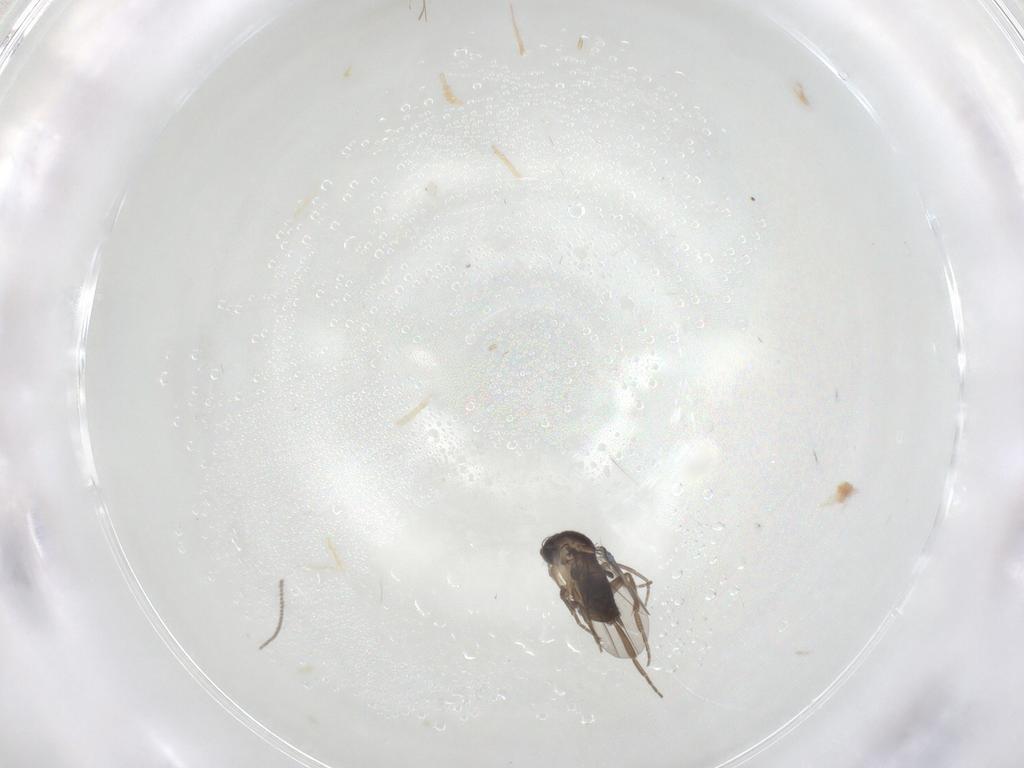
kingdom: Animalia
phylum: Arthropoda
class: Insecta
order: Diptera
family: Phoridae
